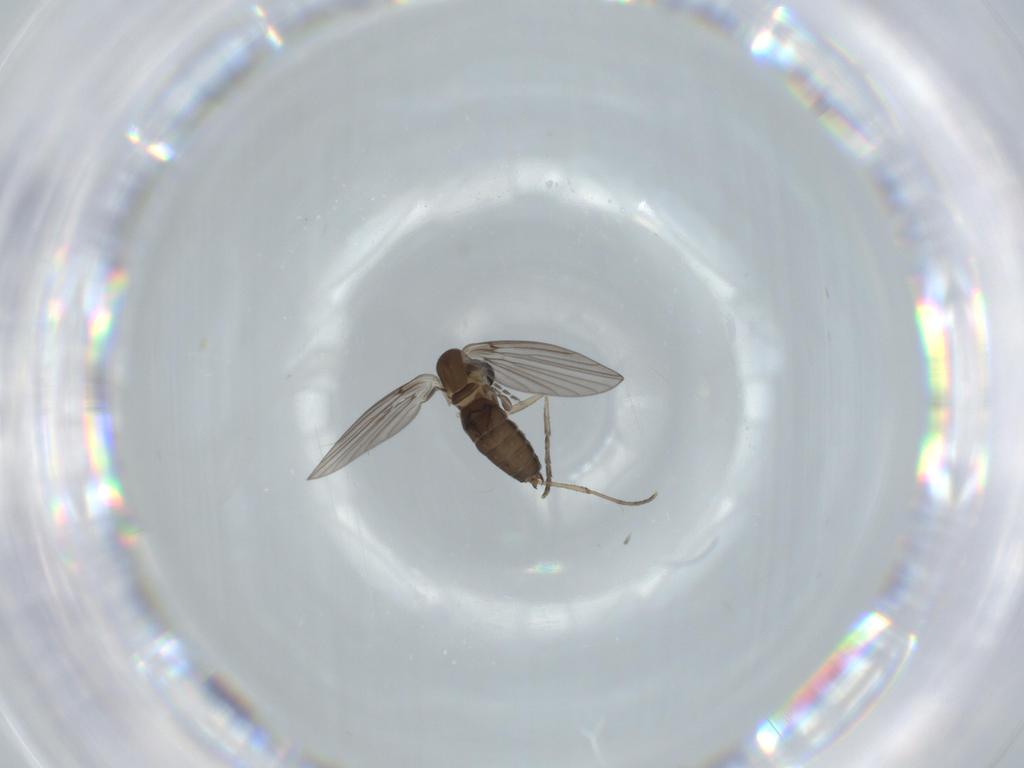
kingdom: Animalia
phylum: Arthropoda
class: Insecta
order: Diptera
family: Psychodidae
